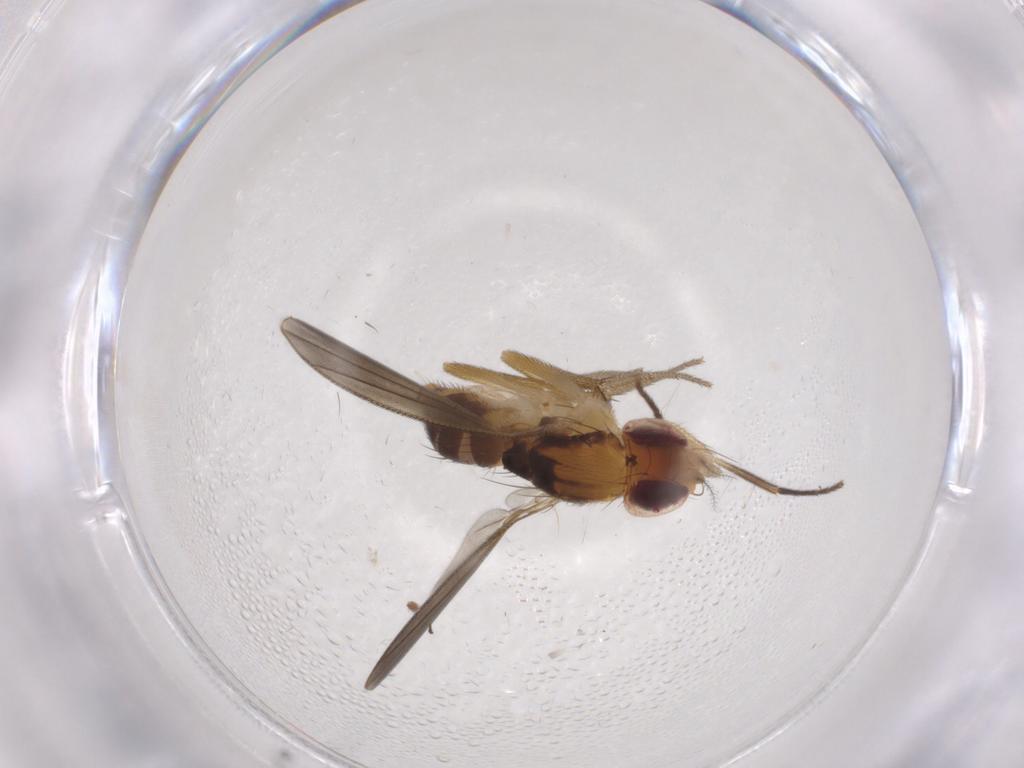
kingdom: Animalia
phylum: Arthropoda
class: Insecta
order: Diptera
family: Clusiidae
